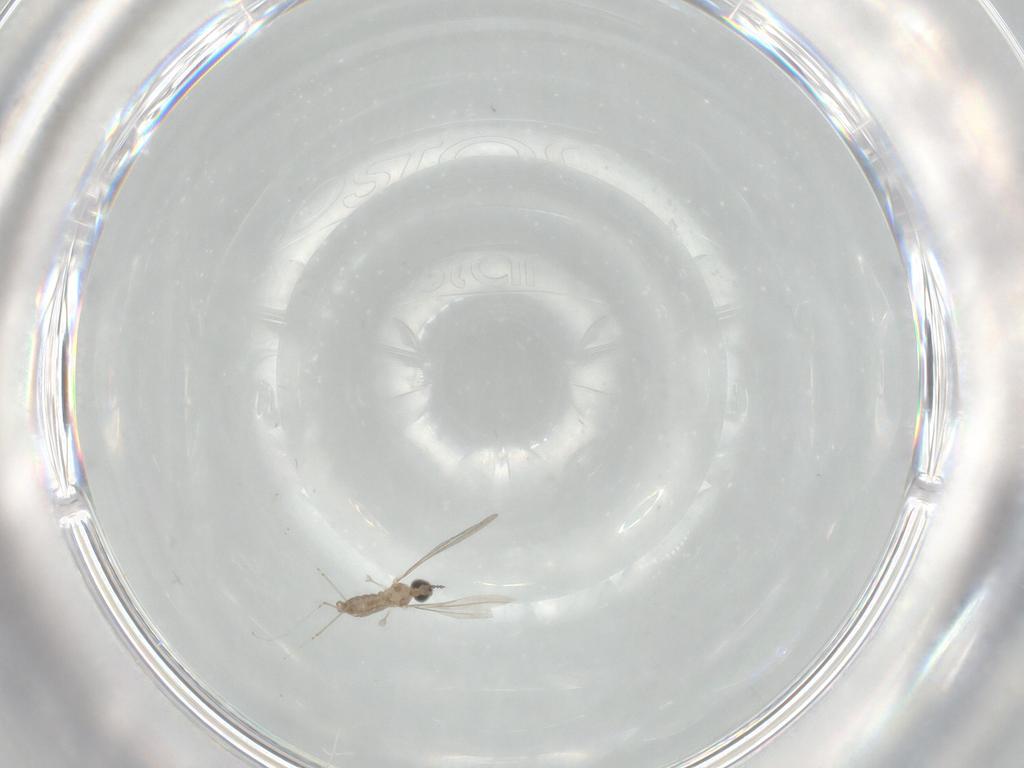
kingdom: Animalia
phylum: Arthropoda
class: Insecta
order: Diptera
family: Cecidomyiidae
